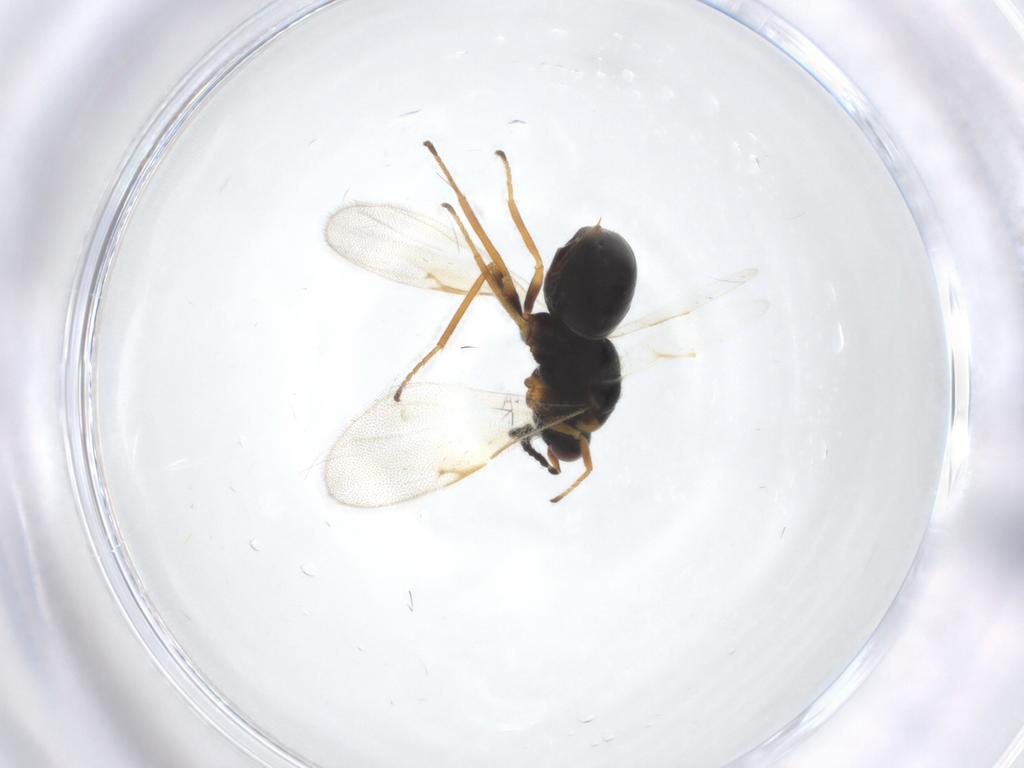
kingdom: Animalia
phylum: Arthropoda
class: Insecta
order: Hymenoptera
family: Eurytomidae
